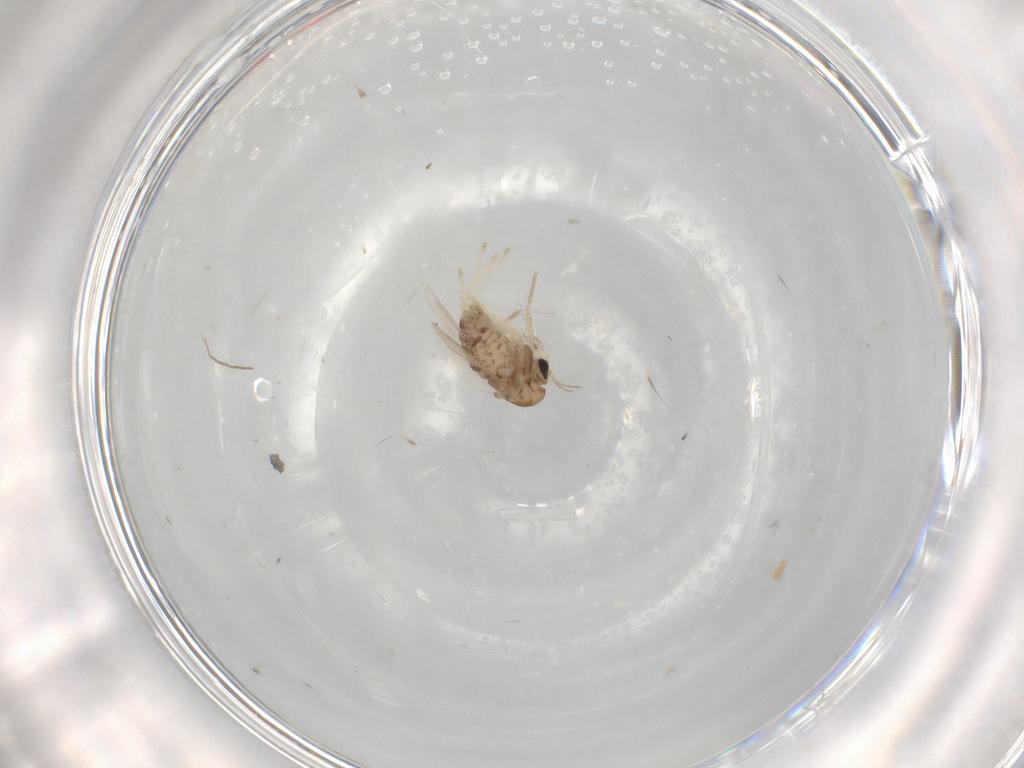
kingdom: Animalia
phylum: Arthropoda
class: Insecta
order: Diptera
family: Chironomidae
